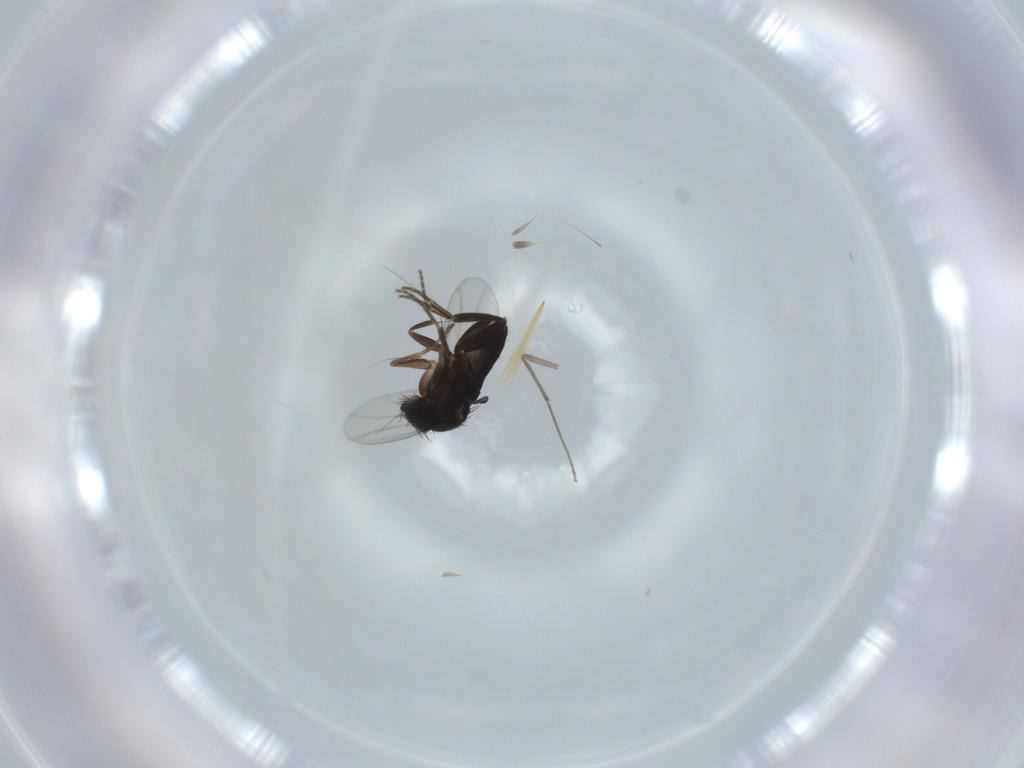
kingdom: Animalia
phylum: Arthropoda
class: Insecta
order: Diptera
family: Phoridae
